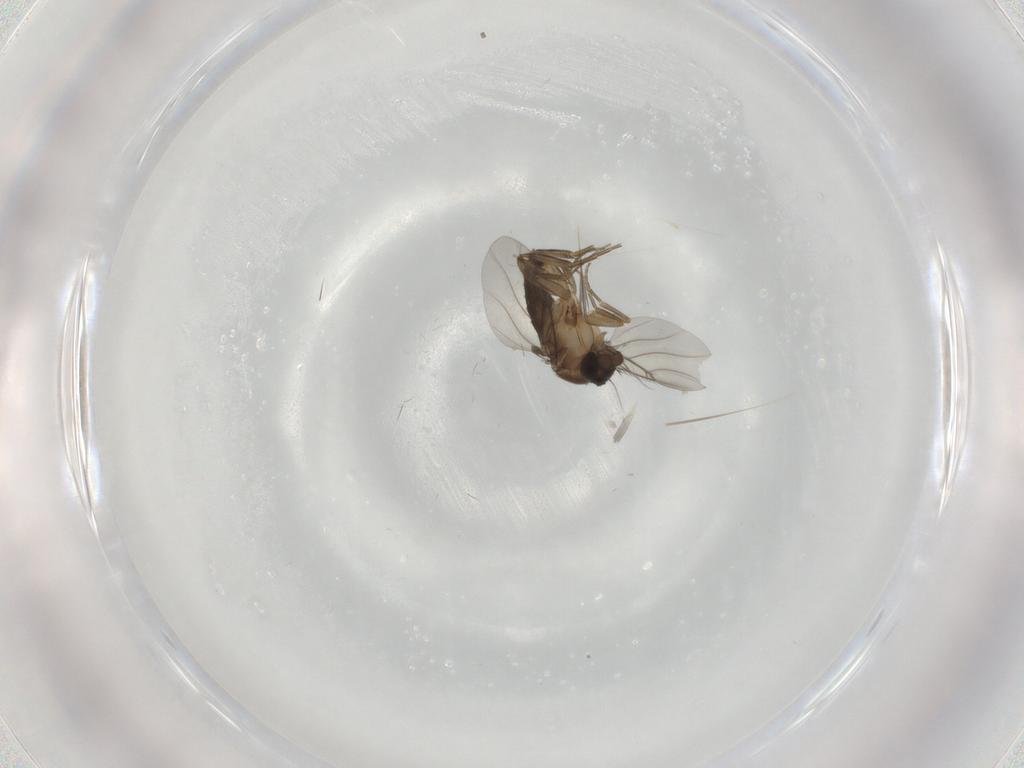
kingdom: Animalia
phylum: Arthropoda
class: Insecta
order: Diptera
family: Phoridae
